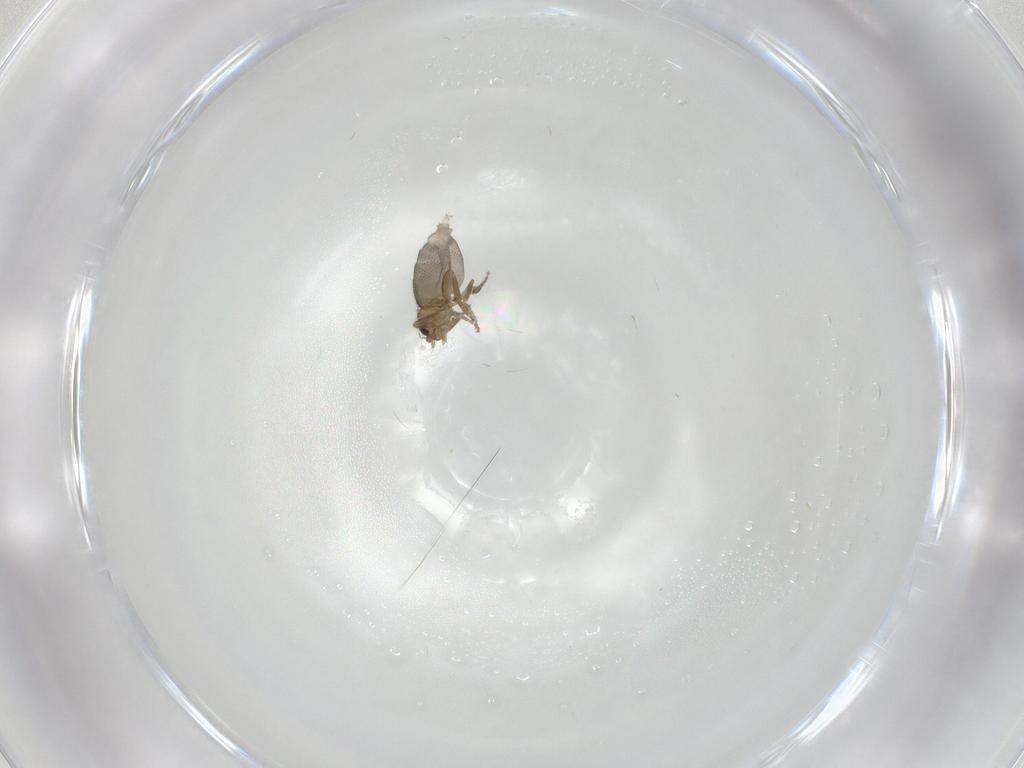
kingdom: Animalia
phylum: Arthropoda
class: Insecta
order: Diptera
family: Phoridae
